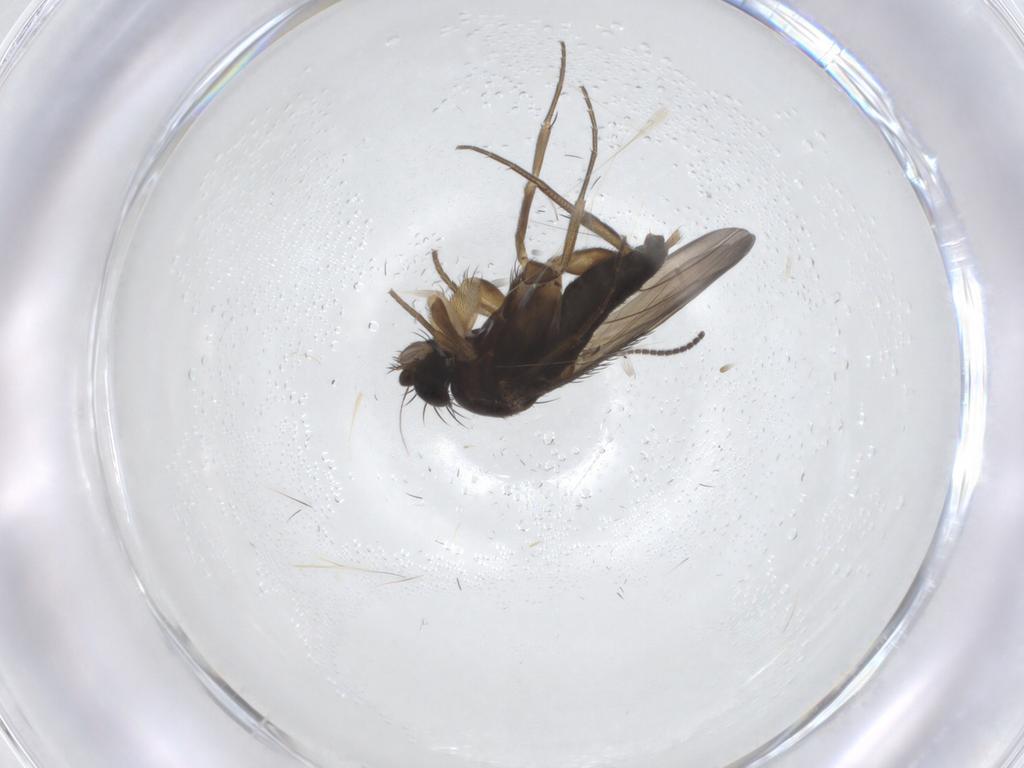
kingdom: Animalia
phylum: Arthropoda
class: Insecta
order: Diptera
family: Phoridae
